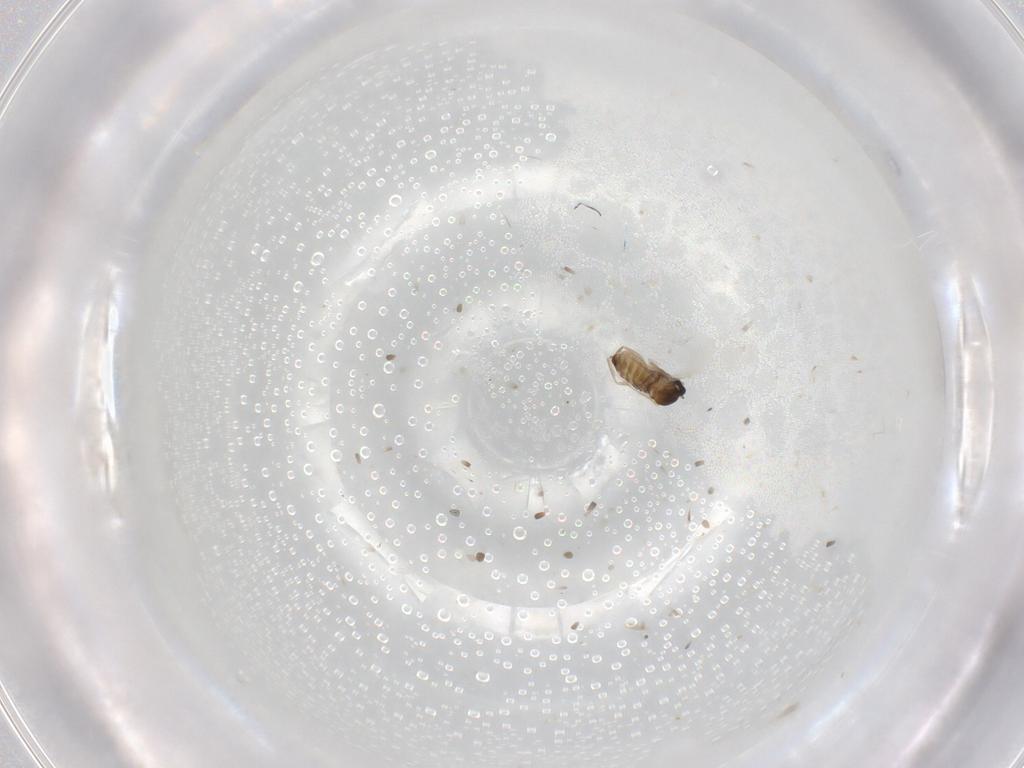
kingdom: Animalia
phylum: Arthropoda
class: Insecta
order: Diptera
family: Cecidomyiidae
